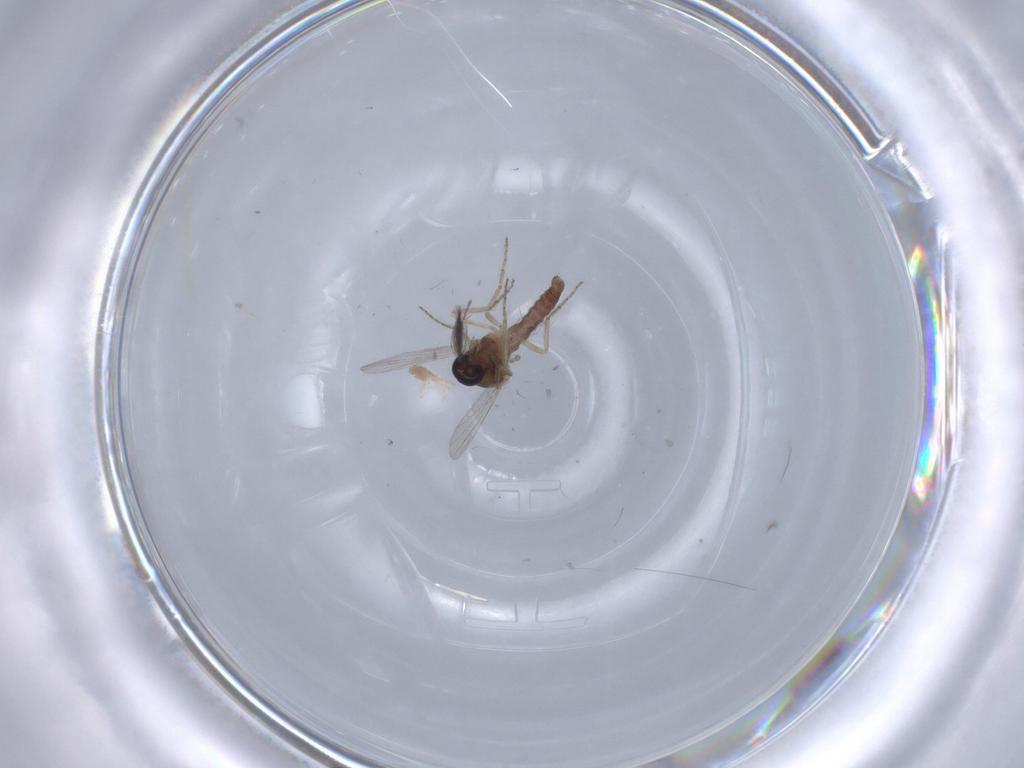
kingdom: Animalia
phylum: Arthropoda
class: Insecta
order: Diptera
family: Ceratopogonidae
